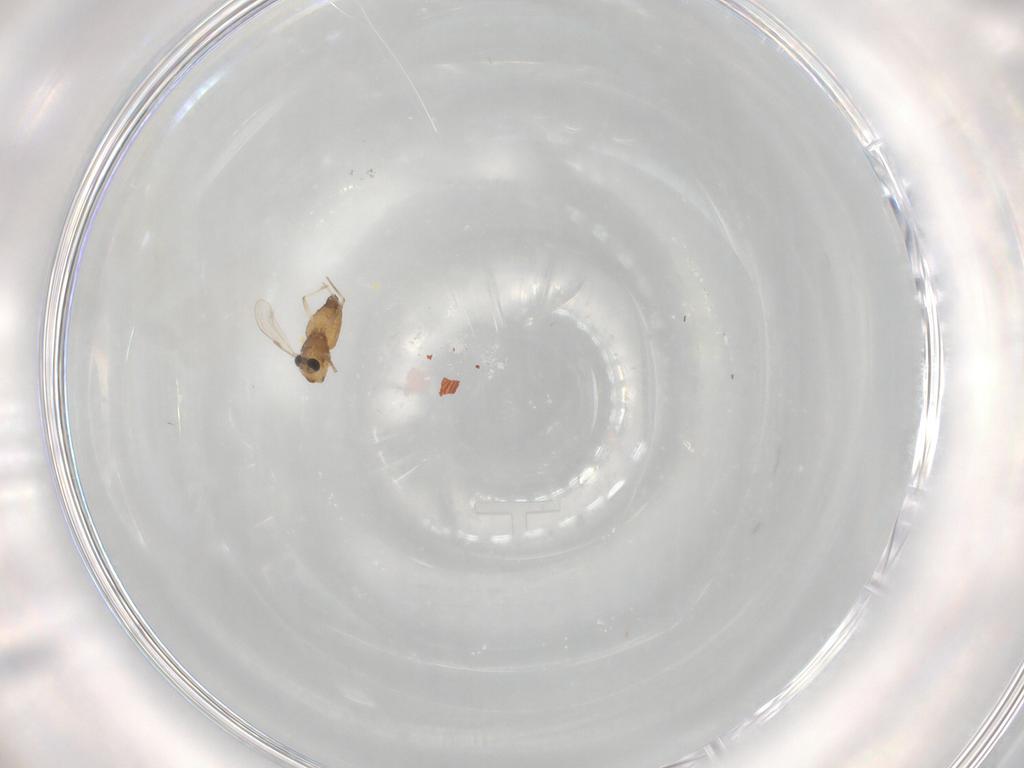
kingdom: Animalia
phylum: Arthropoda
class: Insecta
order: Diptera
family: Chironomidae
